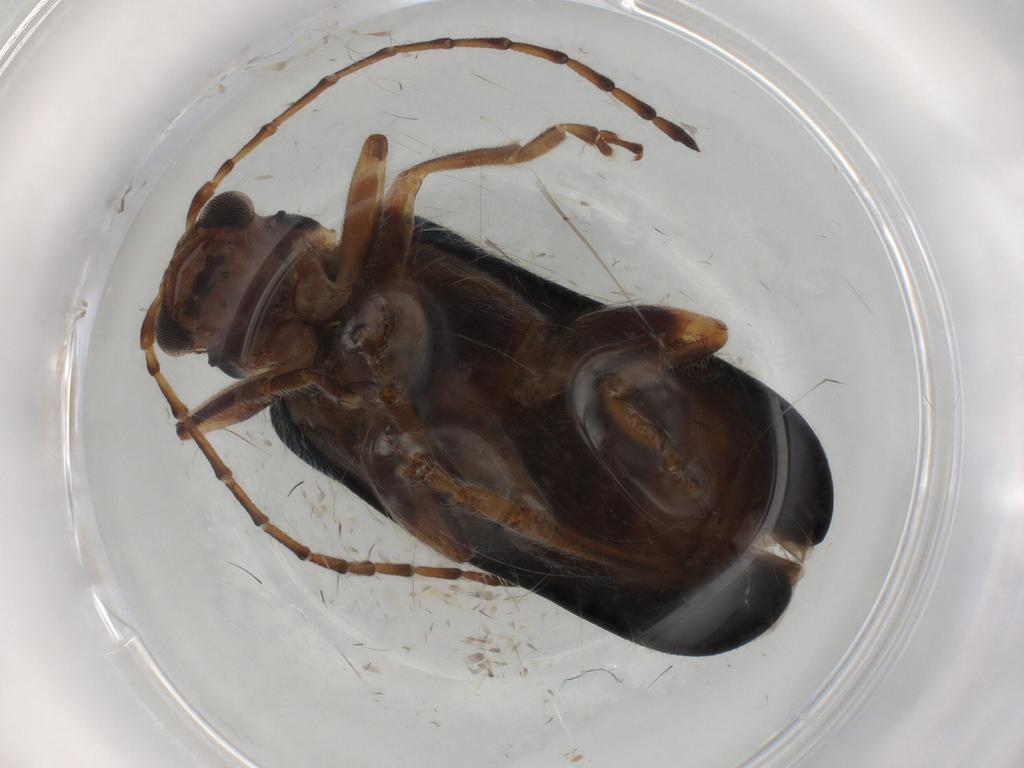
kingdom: Animalia
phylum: Arthropoda
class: Insecta
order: Coleoptera
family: Chrysomelidae
